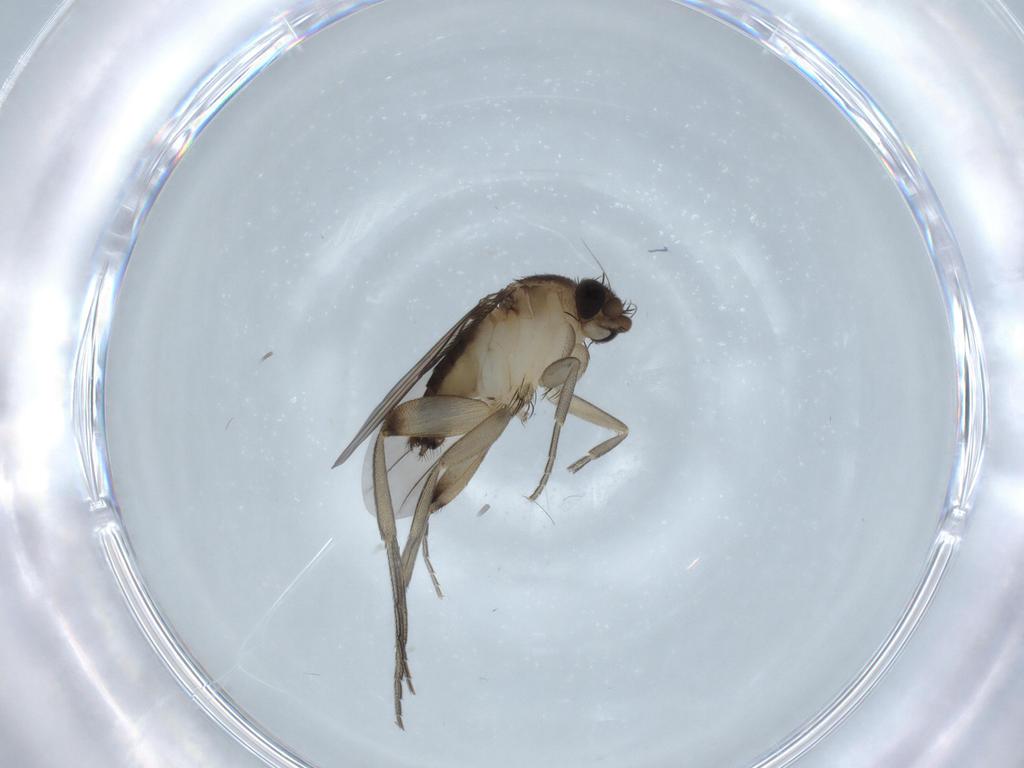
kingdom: Animalia
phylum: Arthropoda
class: Insecta
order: Diptera
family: Phoridae
